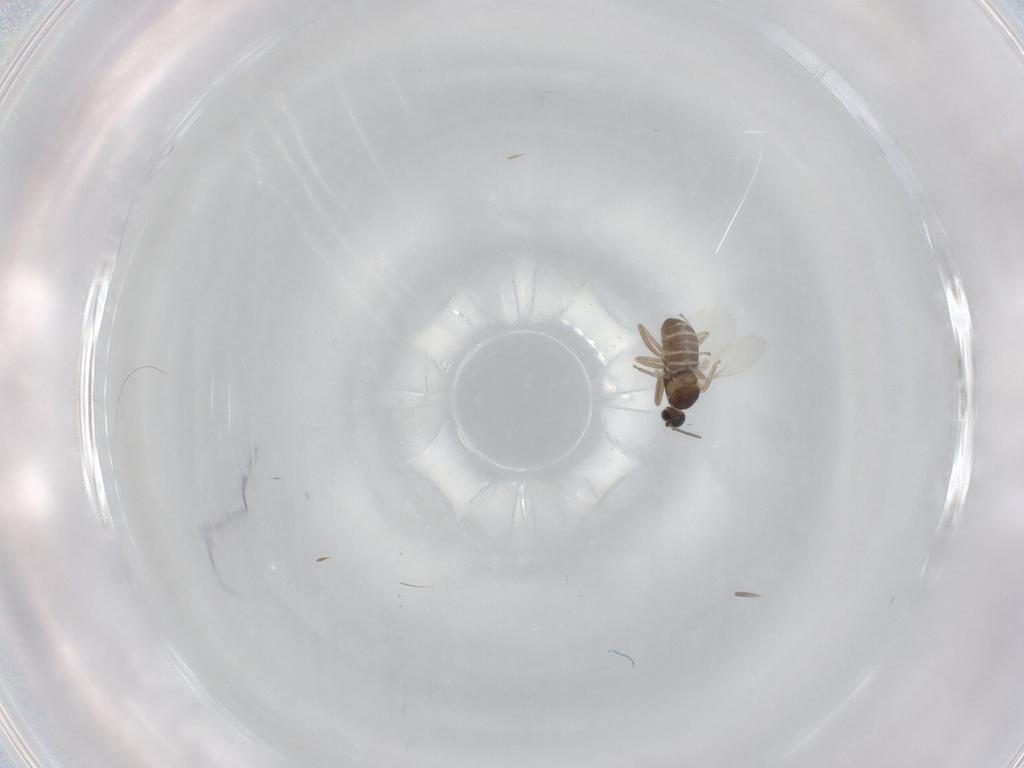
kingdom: Animalia
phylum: Arthropoda
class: Insecta
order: Diptera
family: Cecidomyiidae
